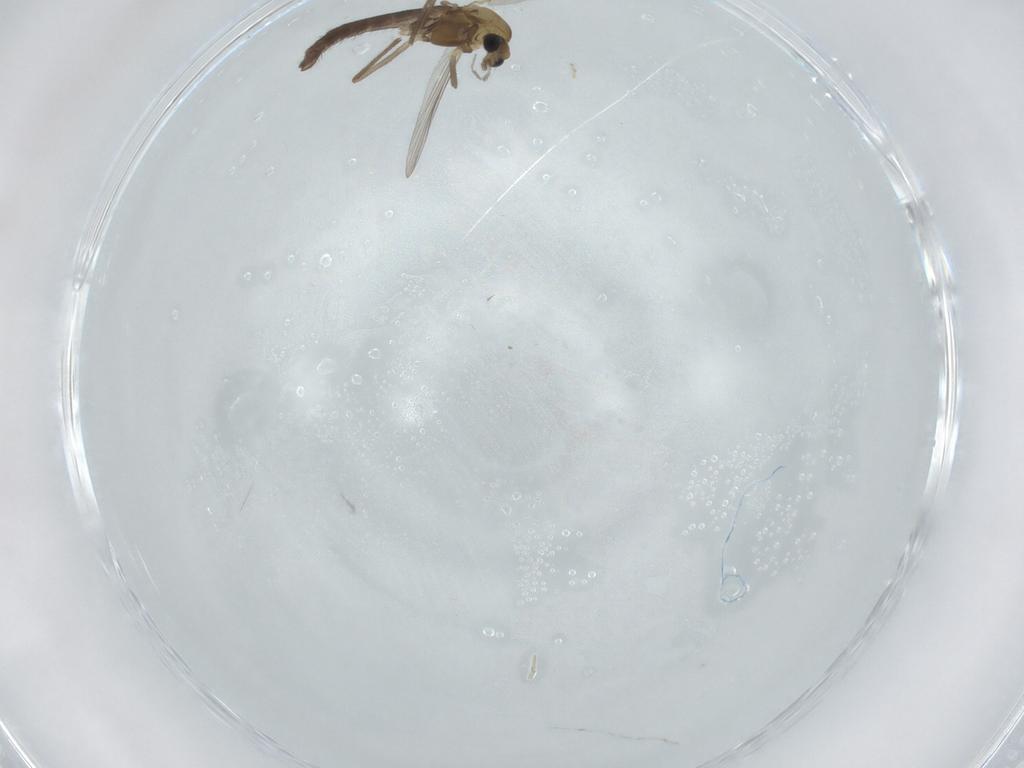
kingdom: Animalia
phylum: Arthropoda
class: Insecta
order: Diptera
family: Chironomidae
